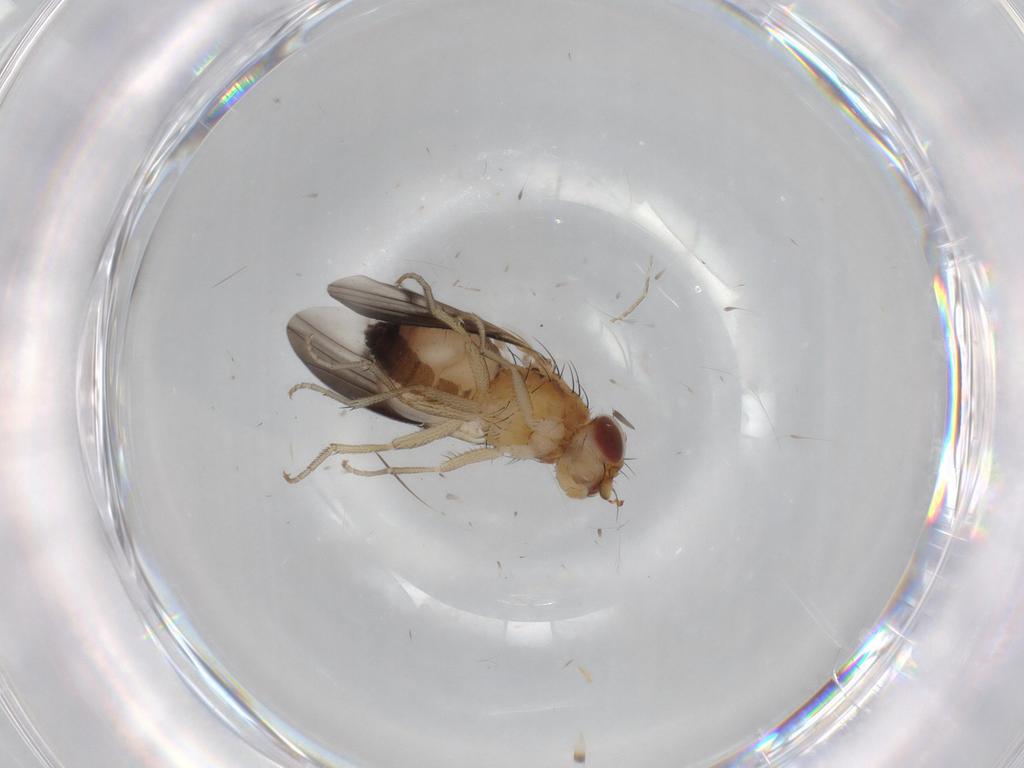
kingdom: Animalia
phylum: Arthropoda
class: Insecta
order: Diptera
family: Heleomyzidae
